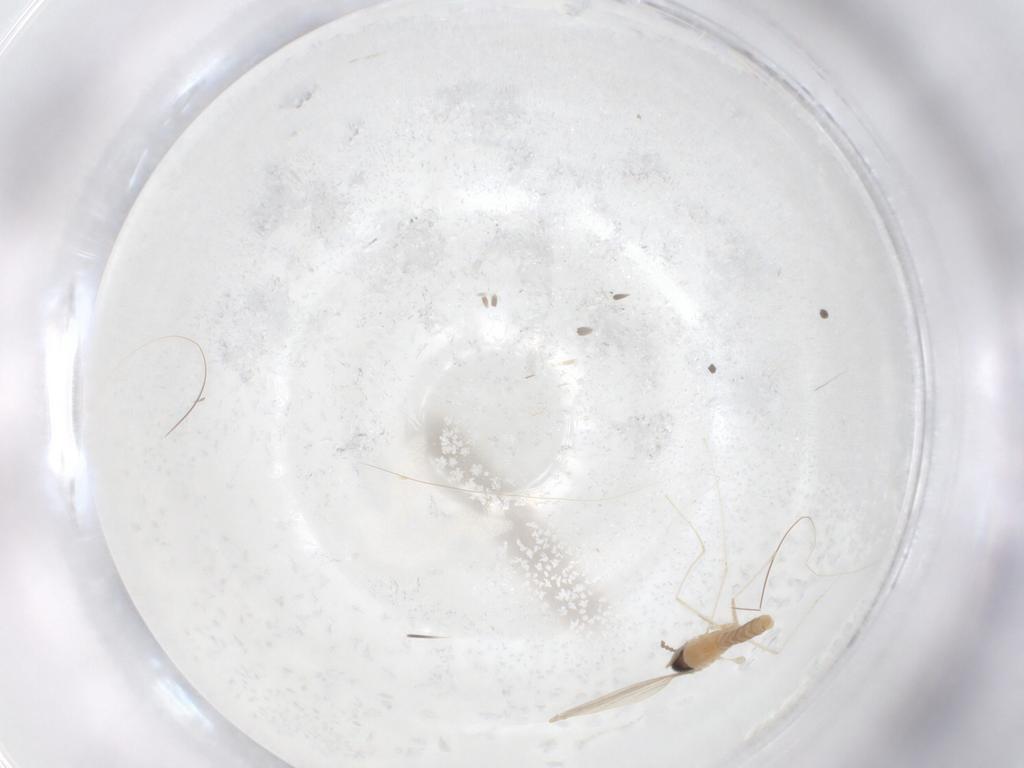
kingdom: Animalia
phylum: Arthropoda
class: Insecta
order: Diptera
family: Cecidomyiidae
